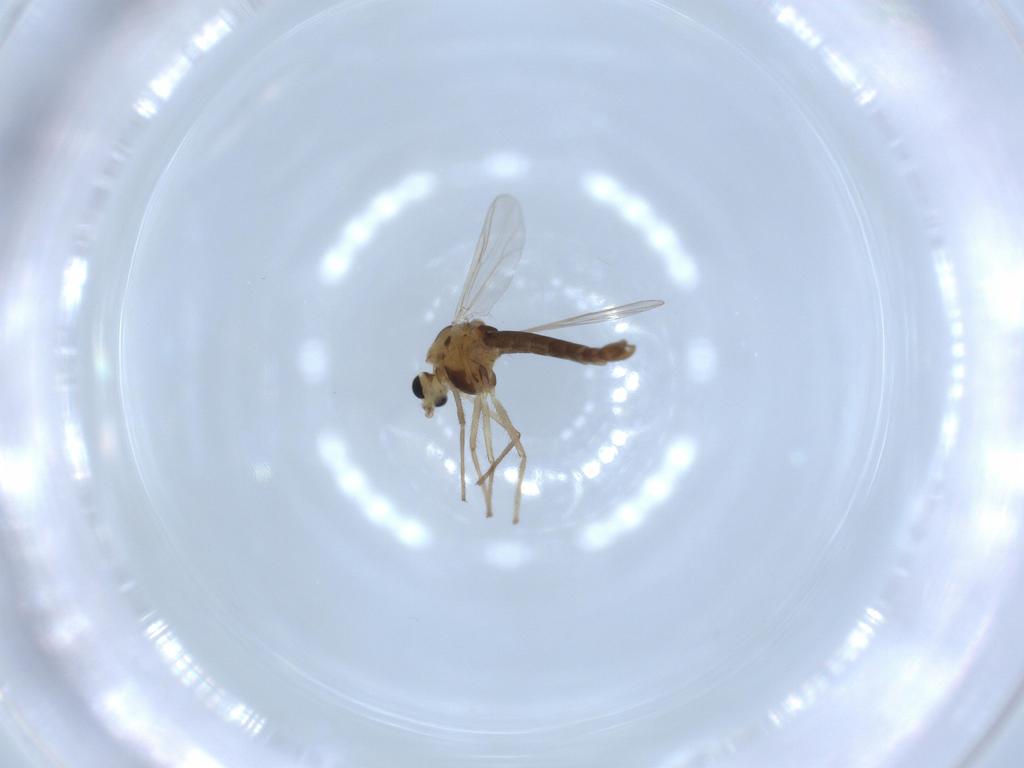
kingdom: Animalia
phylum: Arthropoda
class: Insecta
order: Diptera
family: Chironomidae
